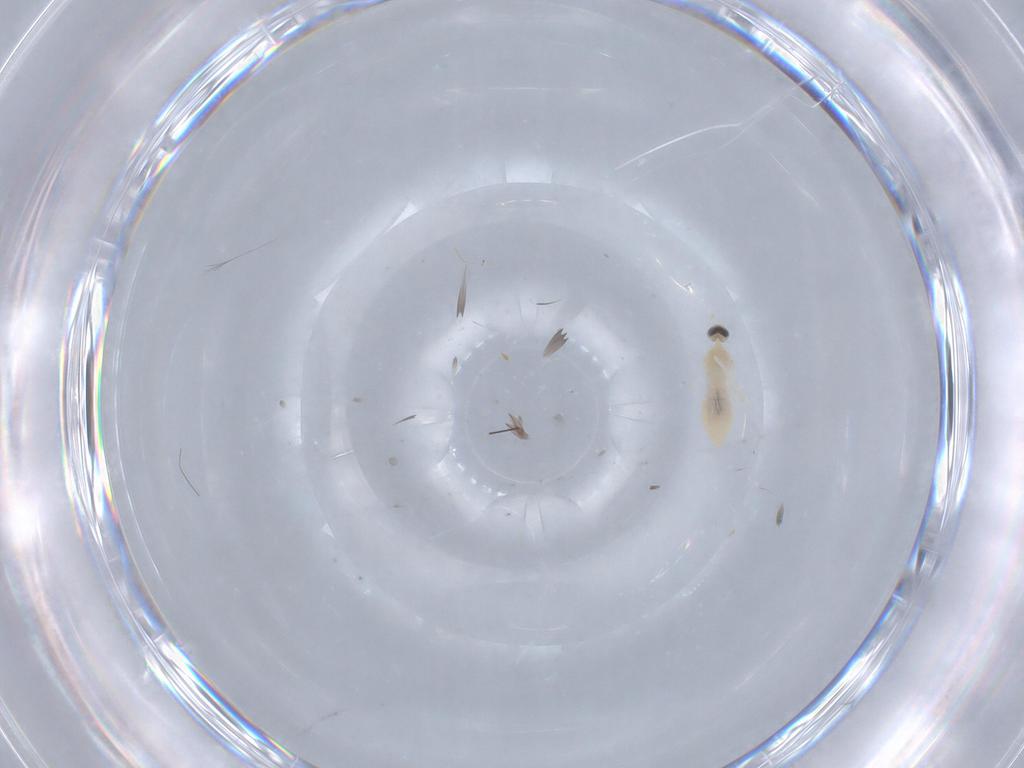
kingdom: Animalia
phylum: Arthropoda
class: Insecta
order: Diptera
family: Cecidomyiidae
